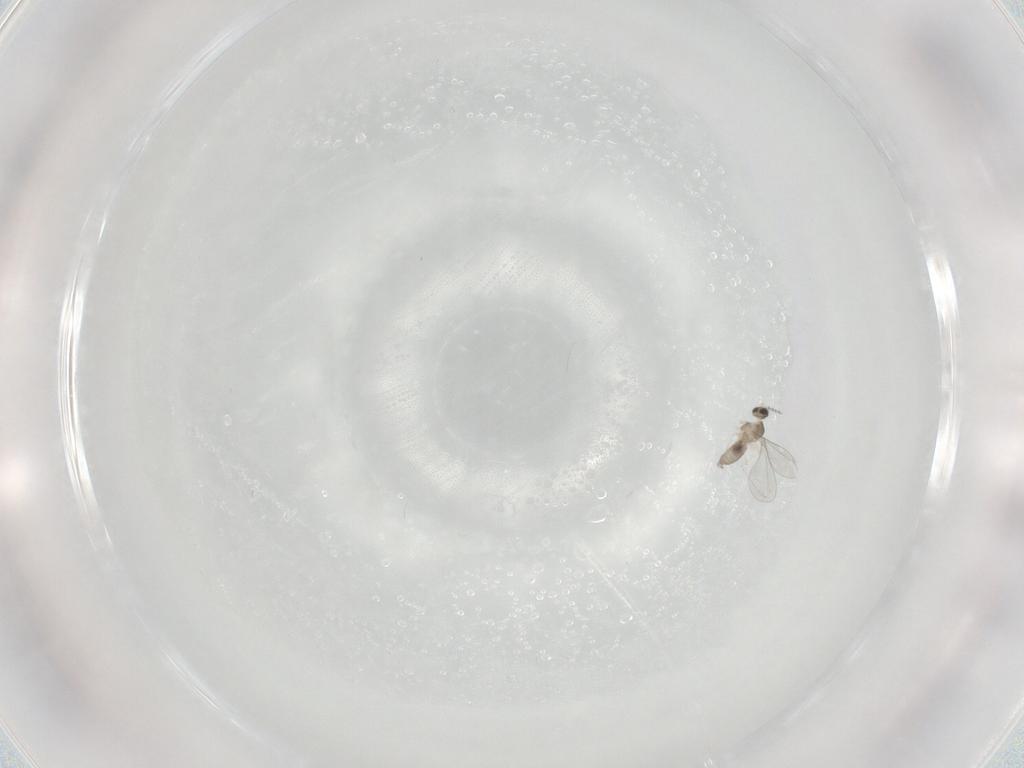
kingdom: Animalia
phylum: Arthropoda
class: Insecta
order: Diptera
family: Cecidomyiidae
